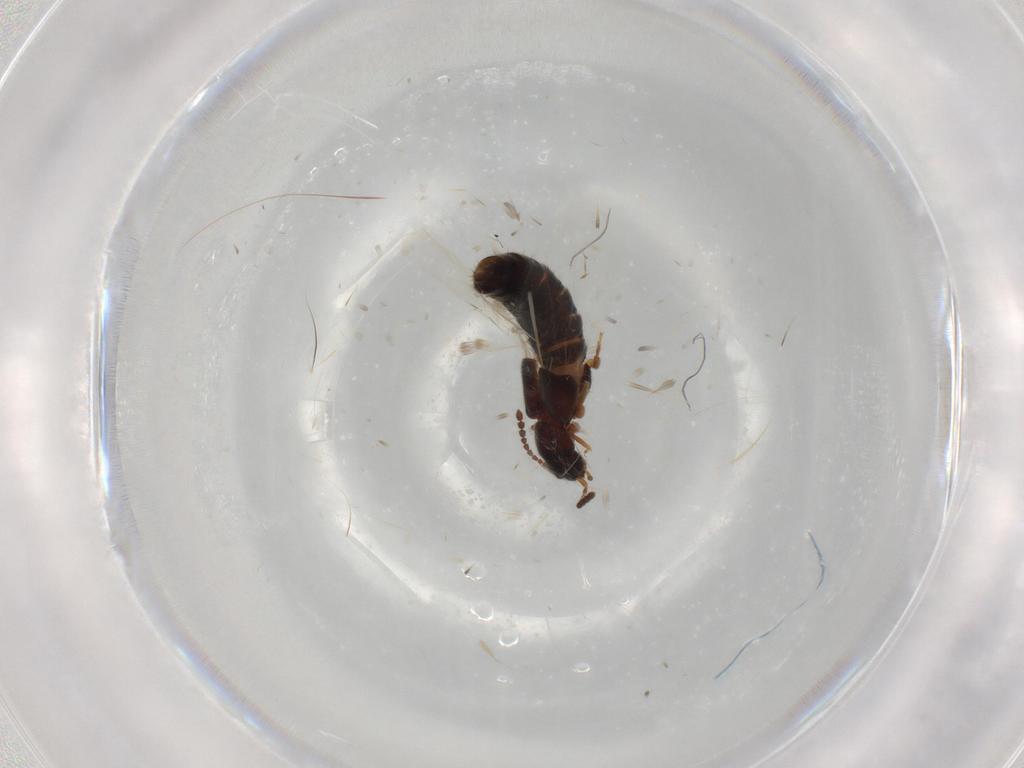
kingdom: Animalia
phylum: Arthropoda
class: Insecta
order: Coleoptera
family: Staphylinidae
